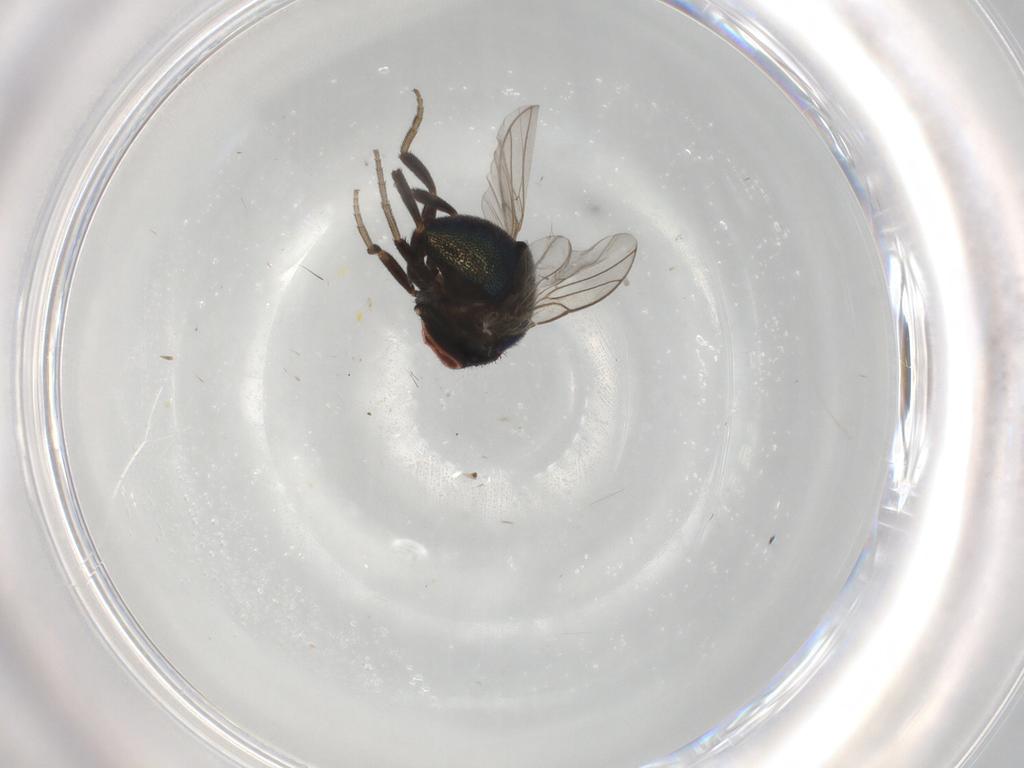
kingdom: Animalia
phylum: Arthropoda
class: Insecta
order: Diptera
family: Cryptochetidae
